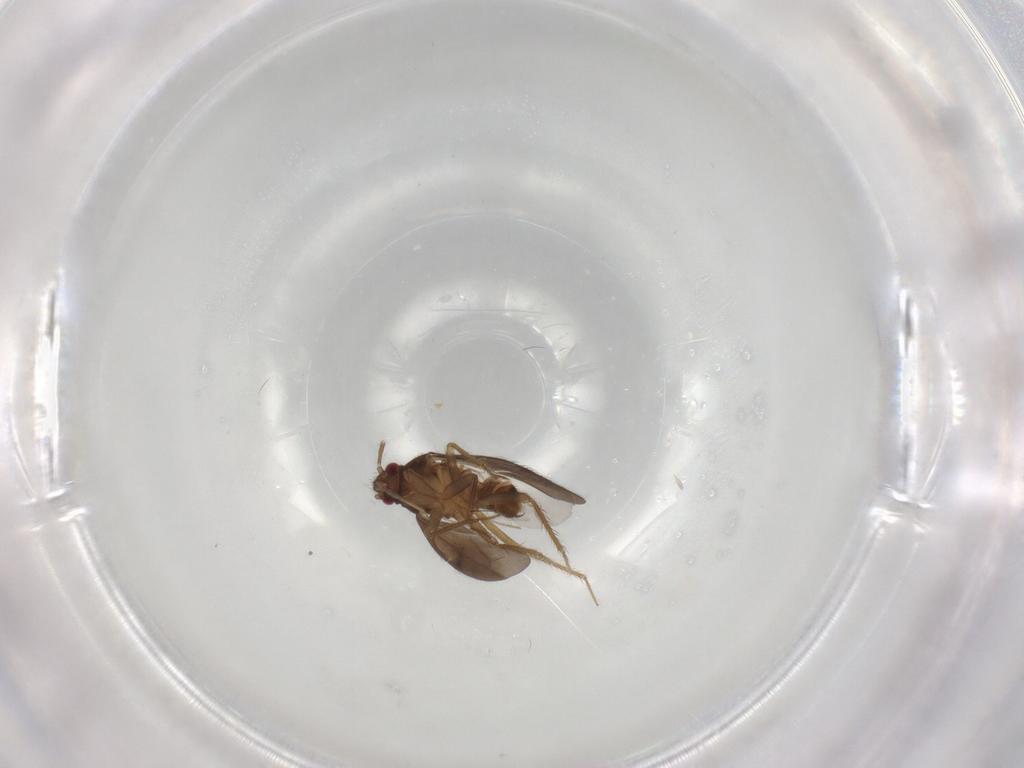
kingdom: Animalia
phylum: Arthropoda
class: Insecta
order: Hemiptera
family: Ceratocombidae
